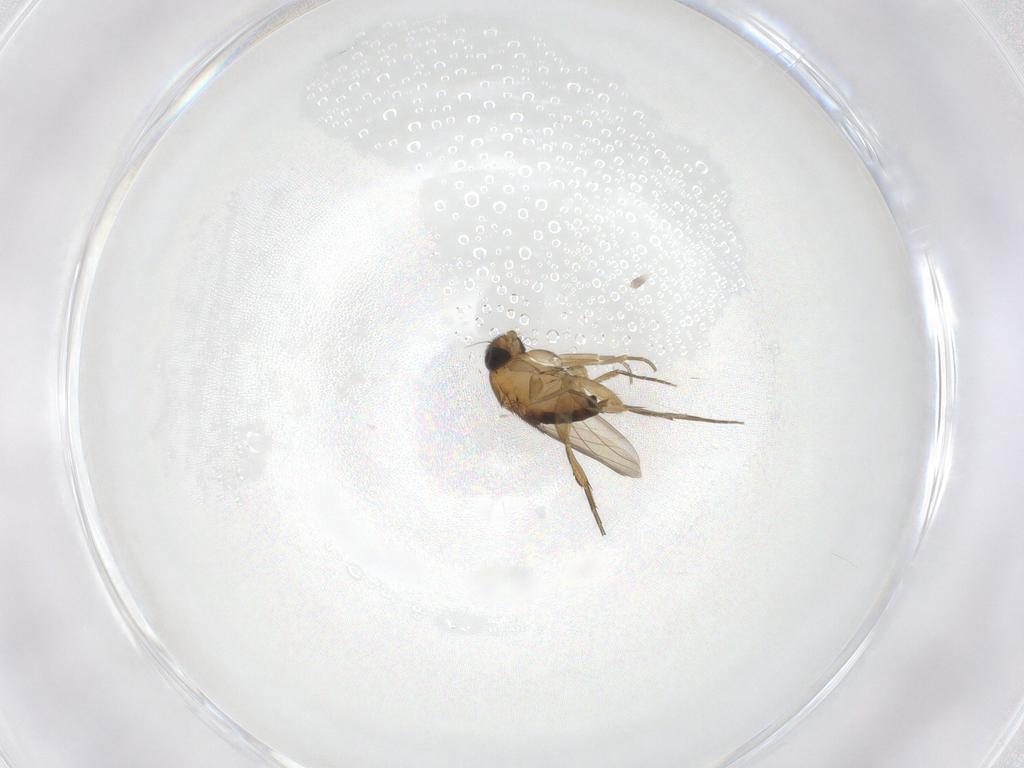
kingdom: Animalia
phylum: Arthropoda
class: Insecta
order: Diptera
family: Phoridae
